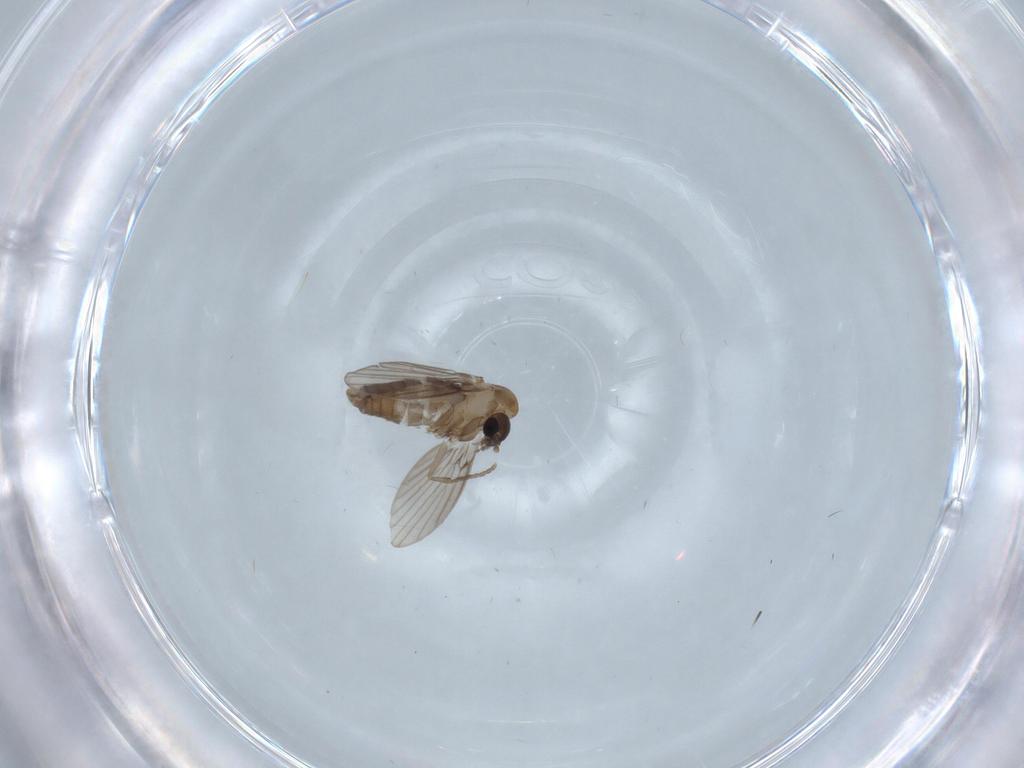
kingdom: Animalia
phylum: Arthropoda
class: Insecta
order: Diptera
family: Psychodidae
